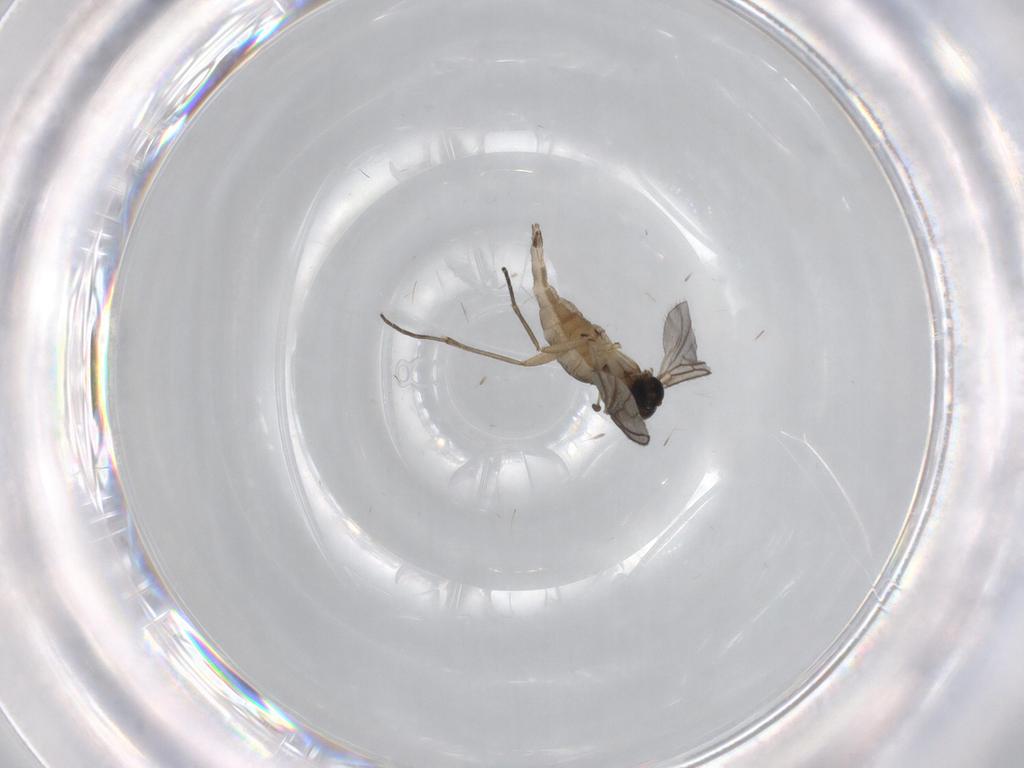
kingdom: Animalia
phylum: Arthropoda
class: Insecta
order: Diptera
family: Sciaridae
